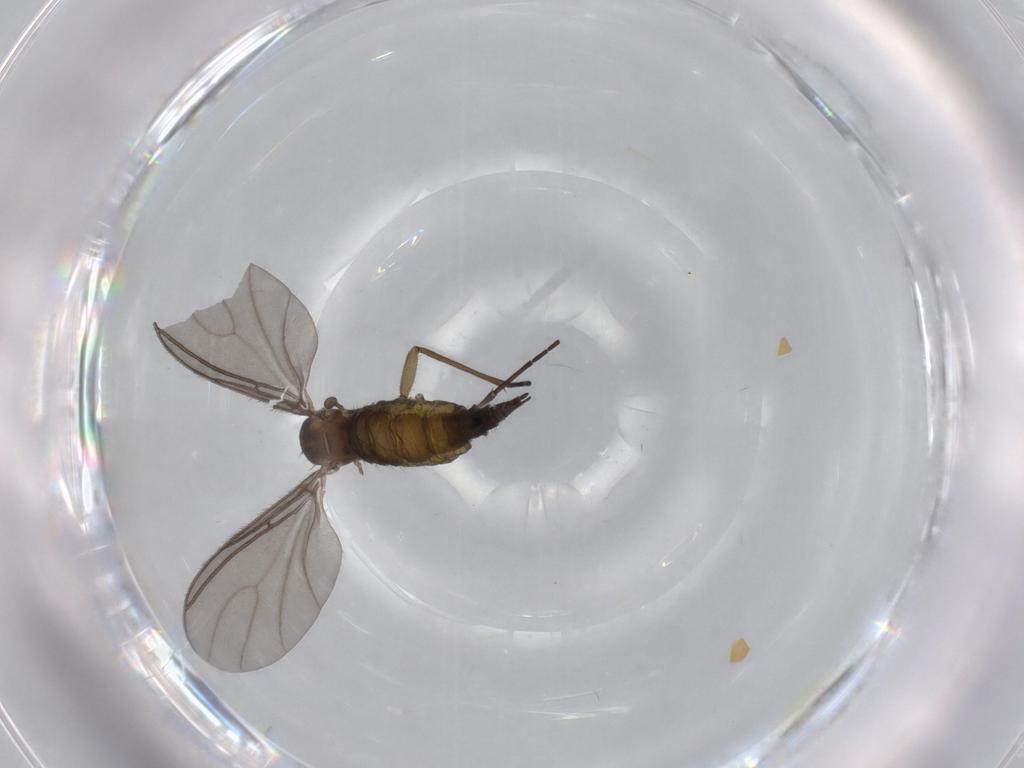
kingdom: Animalia
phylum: Arthropoda
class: Insecta
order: Diptera
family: Sciaridae
